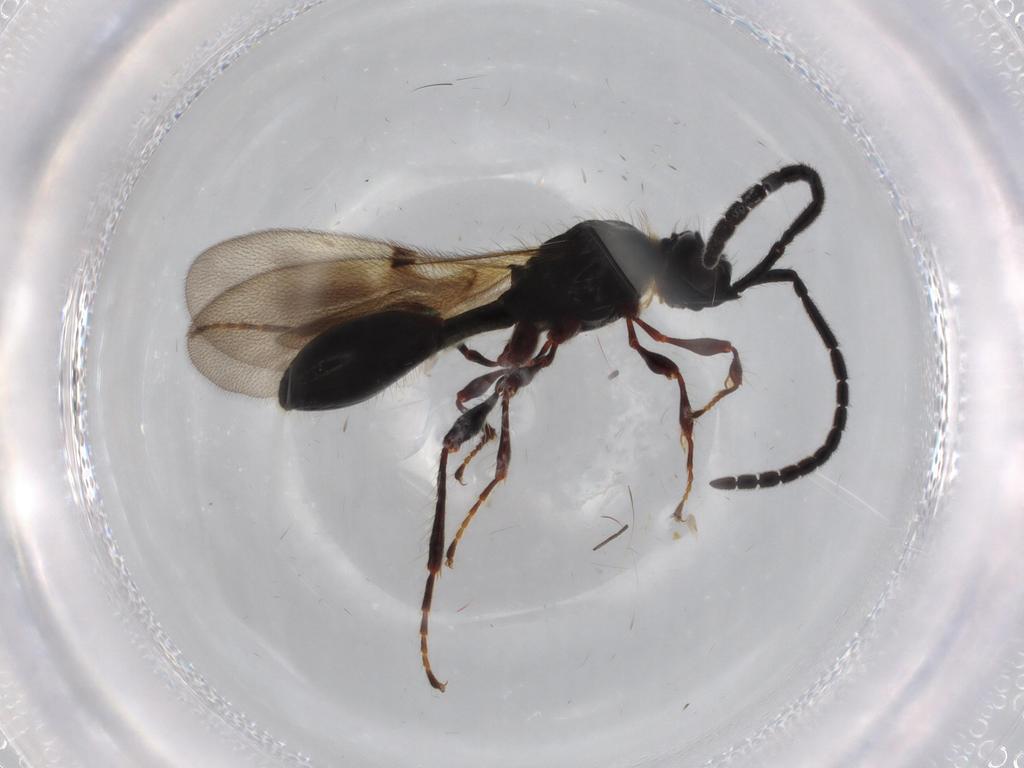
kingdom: Animalia
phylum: Arthropoda
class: Insecta
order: Hymenoptera
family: Diapriidae
